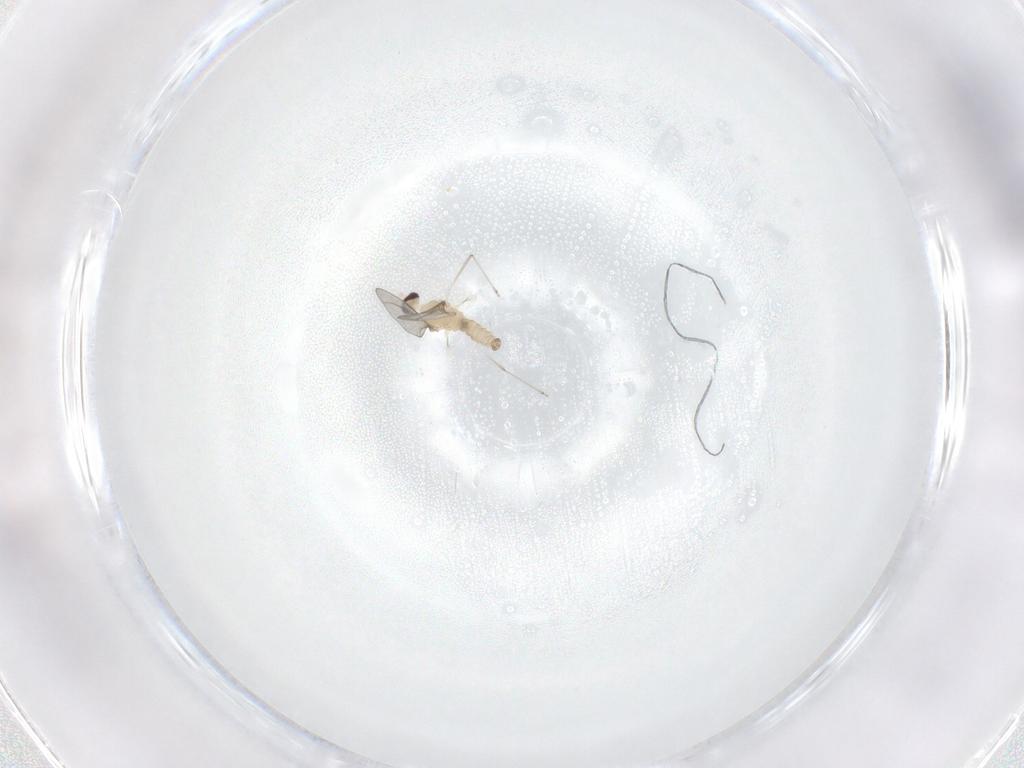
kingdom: Animalia
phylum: Arthropoda
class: Insecta
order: Diptera
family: Cecidomyiidae
